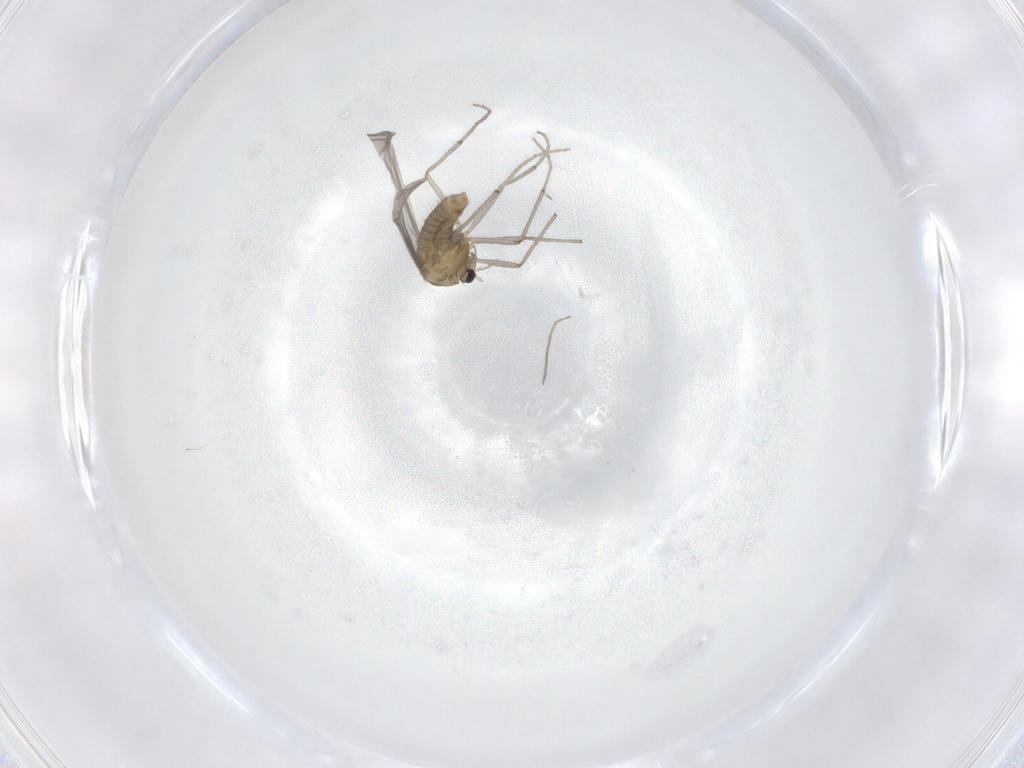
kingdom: Animalia
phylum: Arthropoda
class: Insecta
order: Diptera
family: Chironomidae
